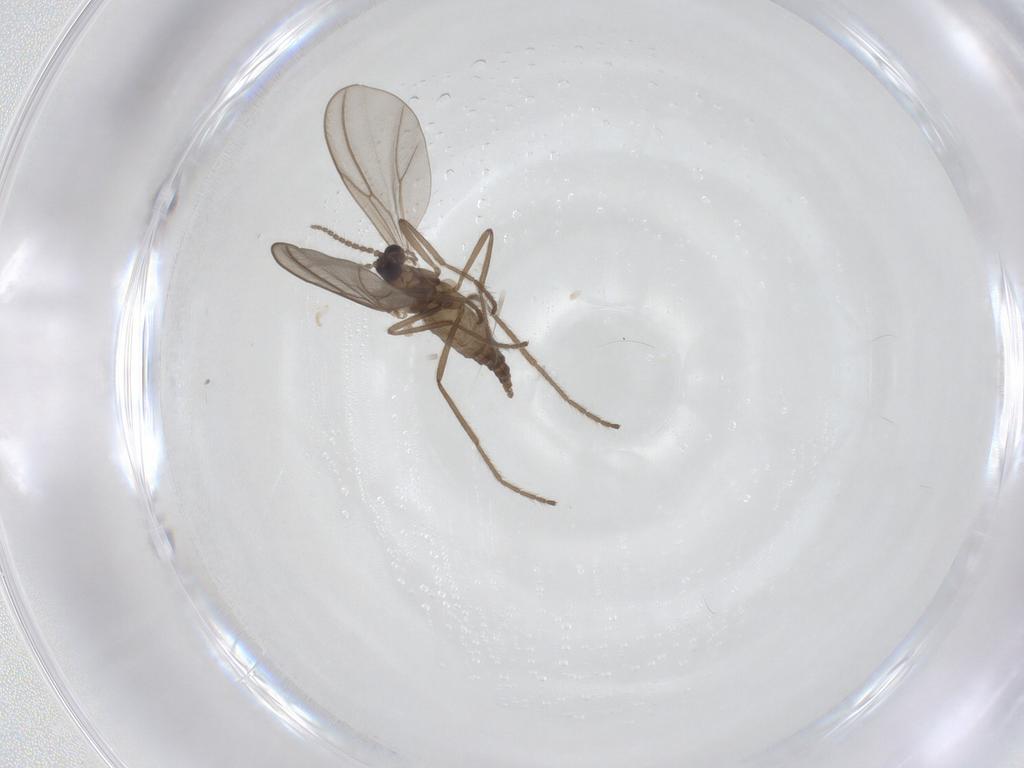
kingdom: Animalia
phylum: Arthropoda
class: Insecta
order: Diptera
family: Cecidomyiidae
